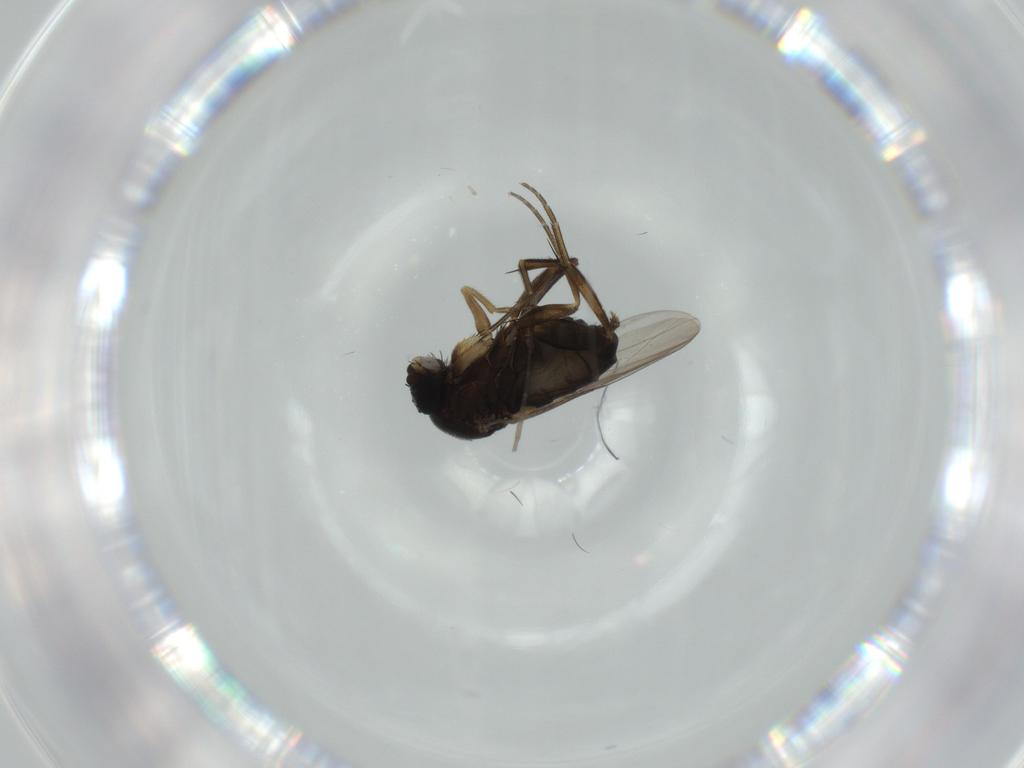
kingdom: Animalia
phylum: Arthropoda
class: Insecta
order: Diptera
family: Phoridae
